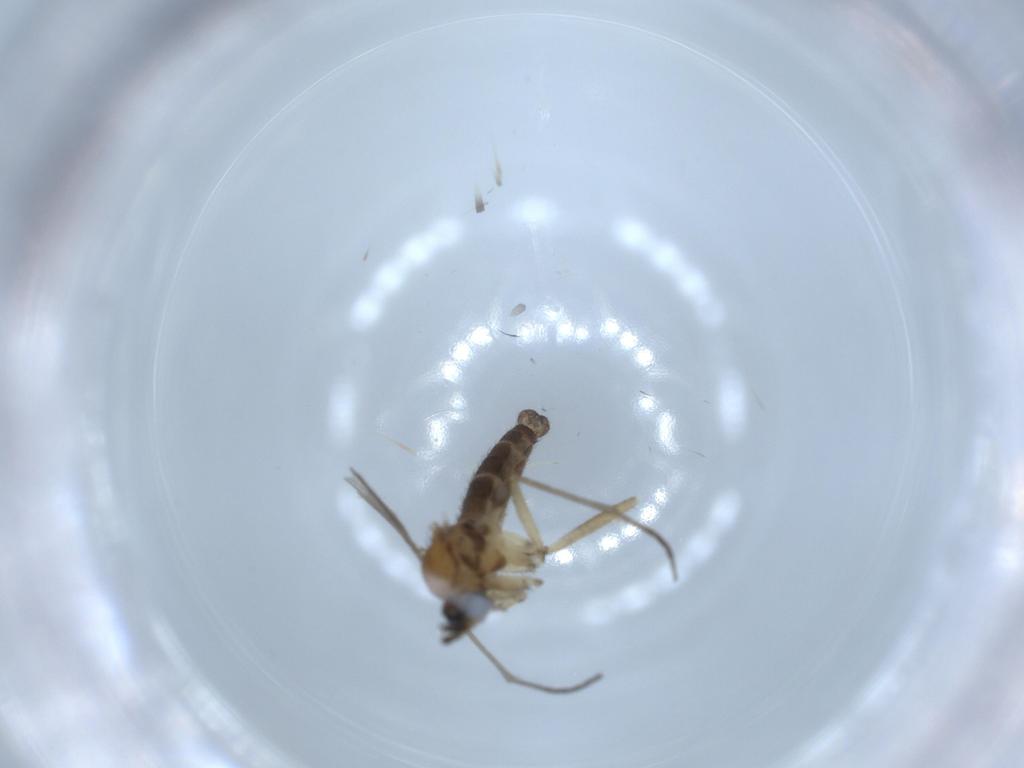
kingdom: Animalia
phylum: Arthropoda
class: Insecta
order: Diptera
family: Sciaridae
